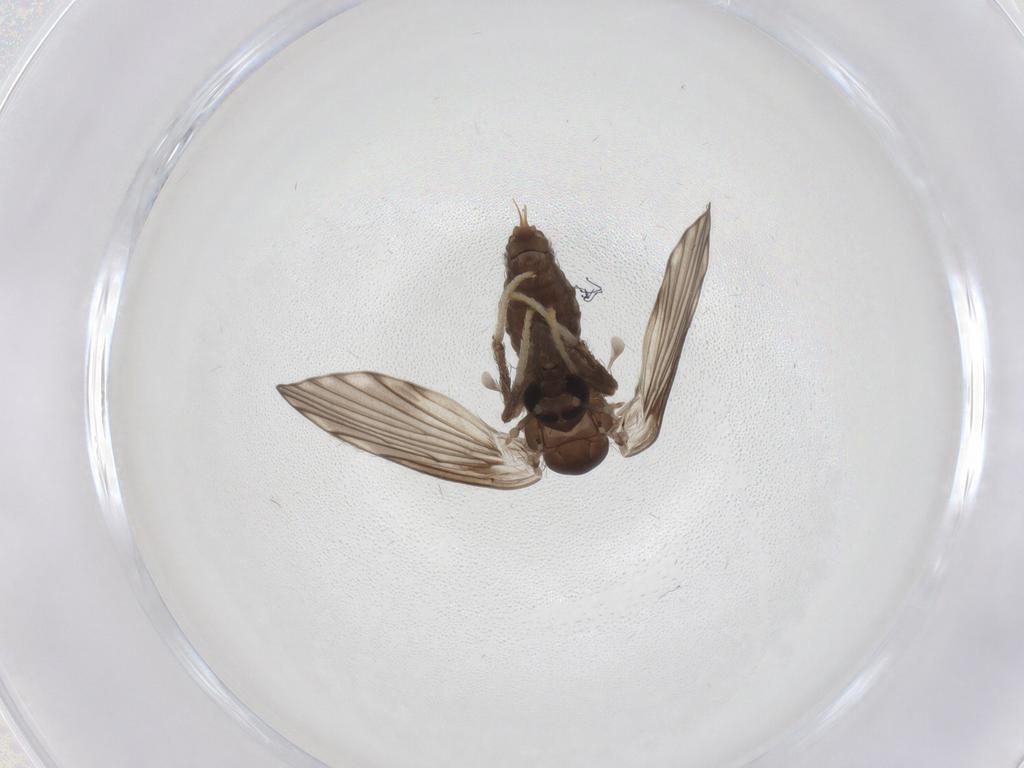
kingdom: Animalia
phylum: Arthropoda
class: Insecta
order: Diptera
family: Psychodidae
